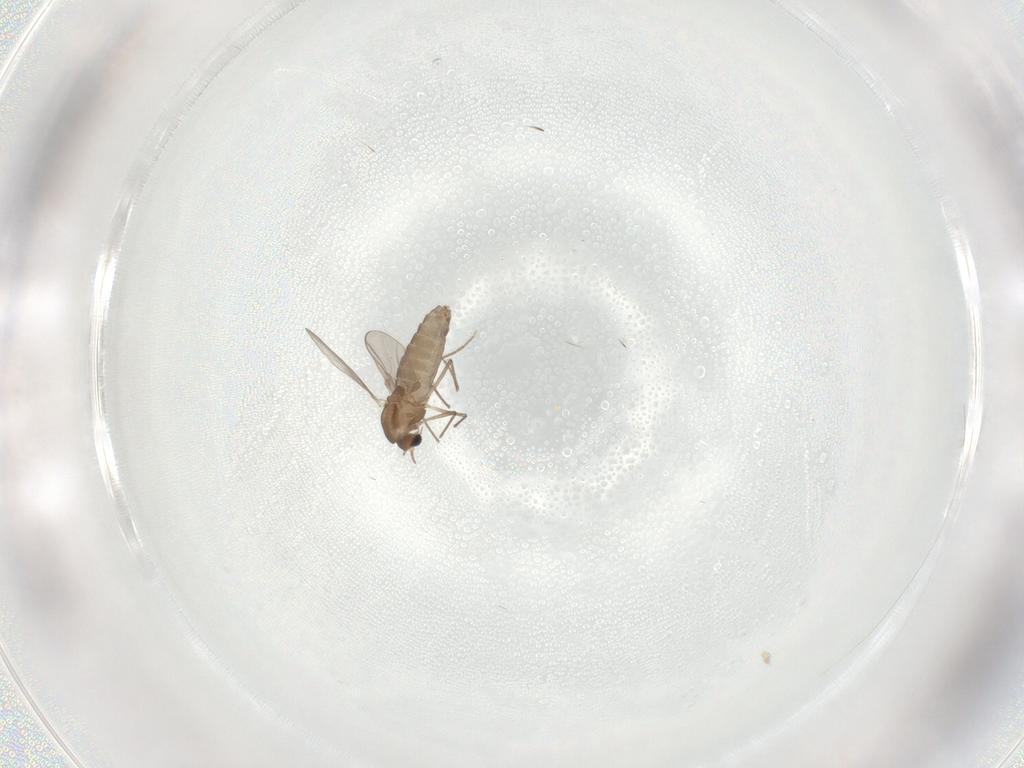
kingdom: Animalia
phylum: Arthropoda
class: Insecta
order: Diptera
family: Chironomidae
